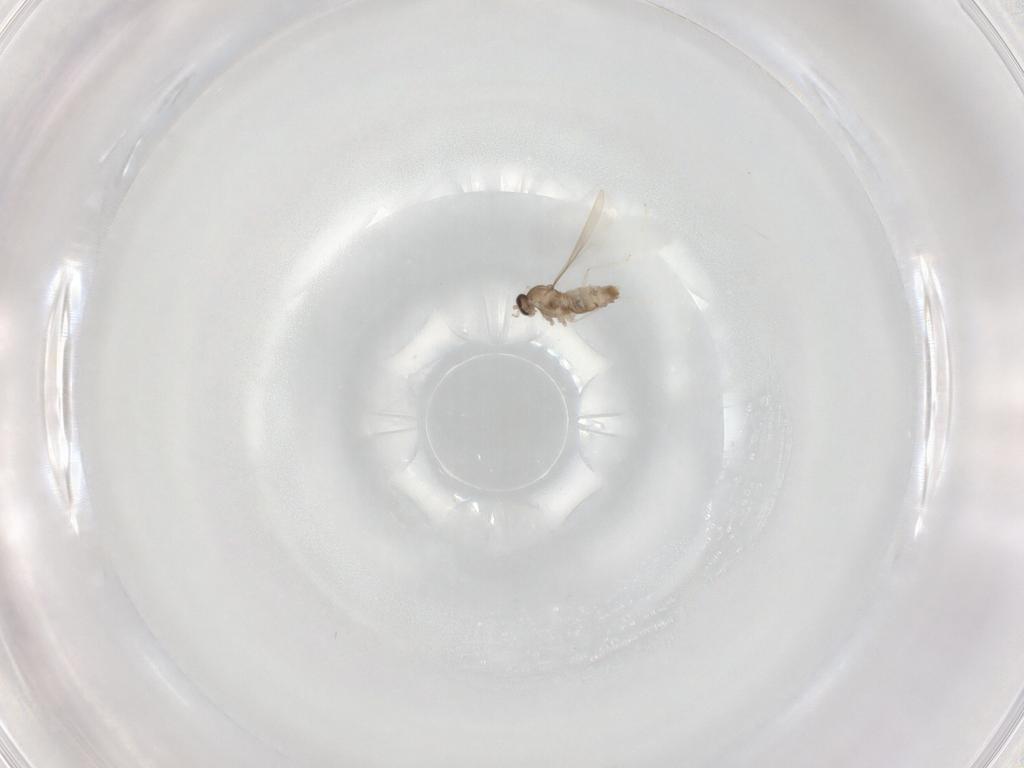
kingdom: Animalia
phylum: Arthropoda
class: Insecta
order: Diptera
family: Cecidomyiidae
